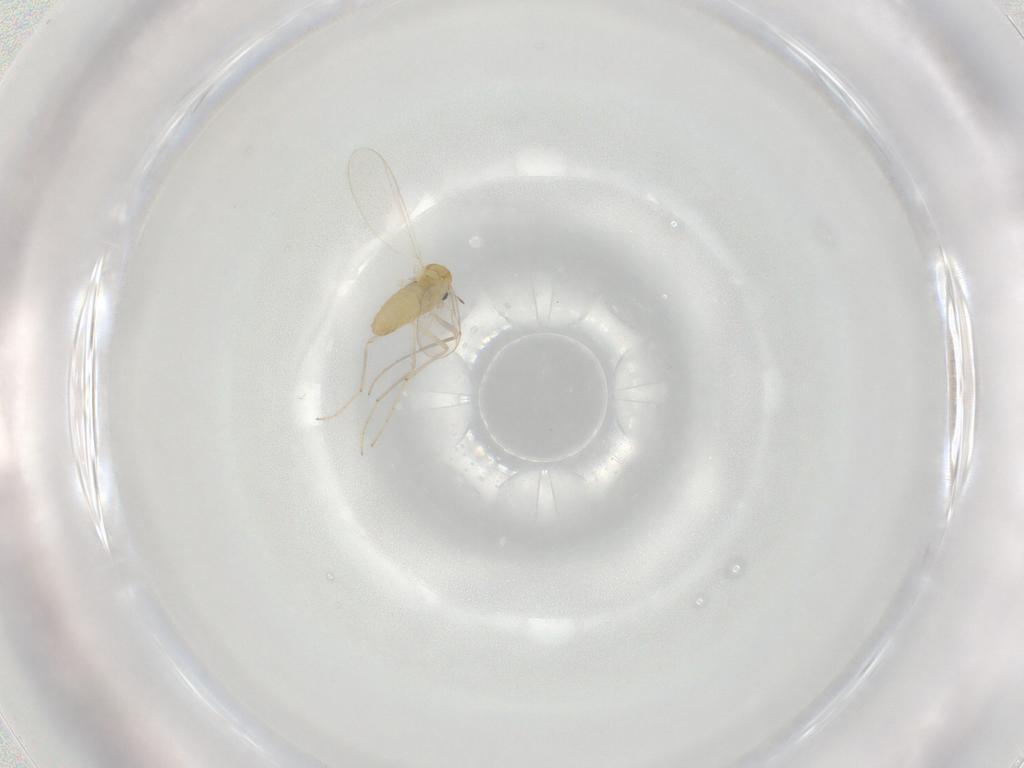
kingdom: Animalia
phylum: Arthropoda
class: Insecta
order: Diptera
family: Chironomidae
